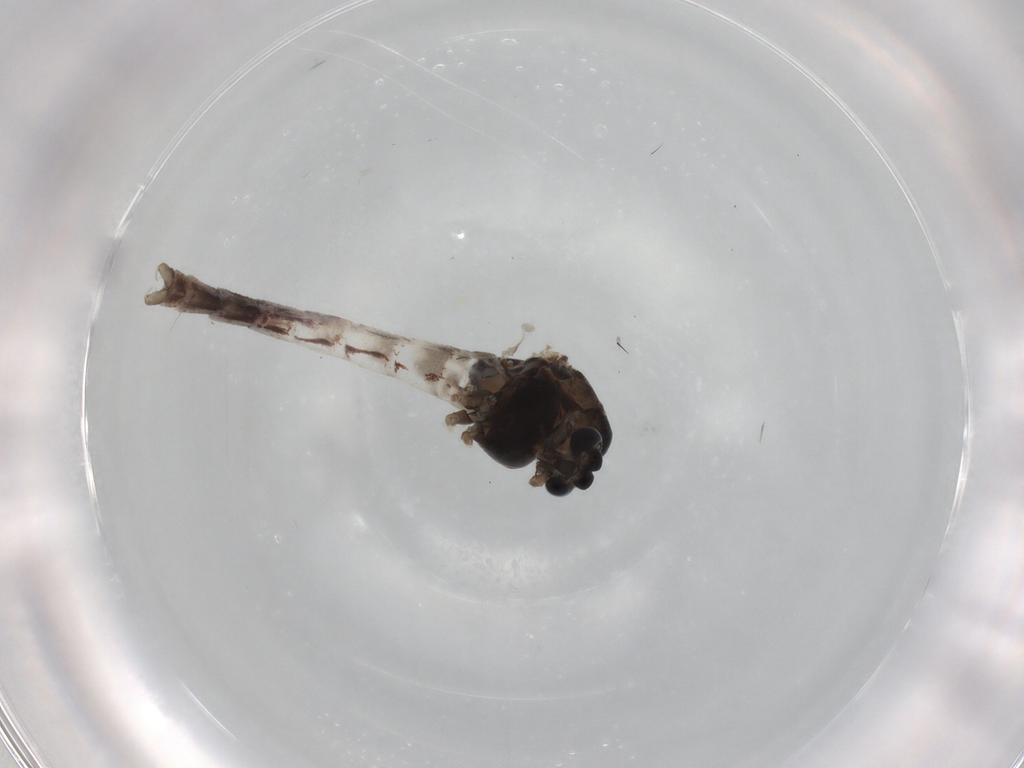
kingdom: Animalia
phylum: Arthropoda
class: Insecta
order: Diptera
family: Chironomidae
